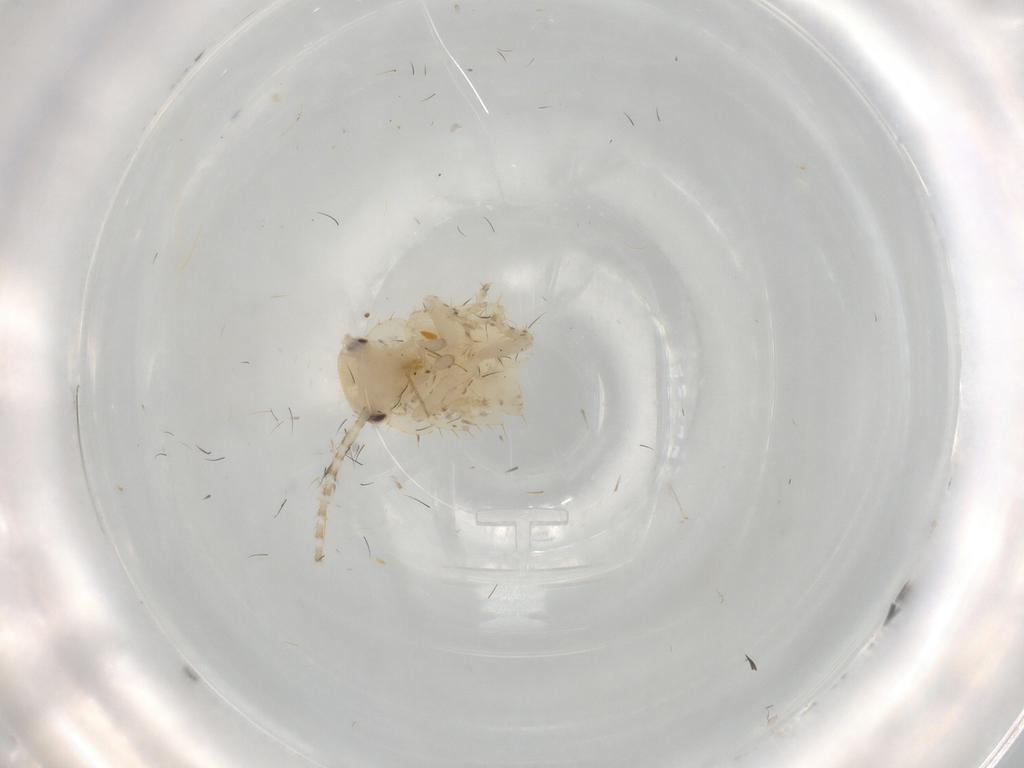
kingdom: Animalia
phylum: Arthropoda
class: Insecta
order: Blattodea
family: Ectobiidae
